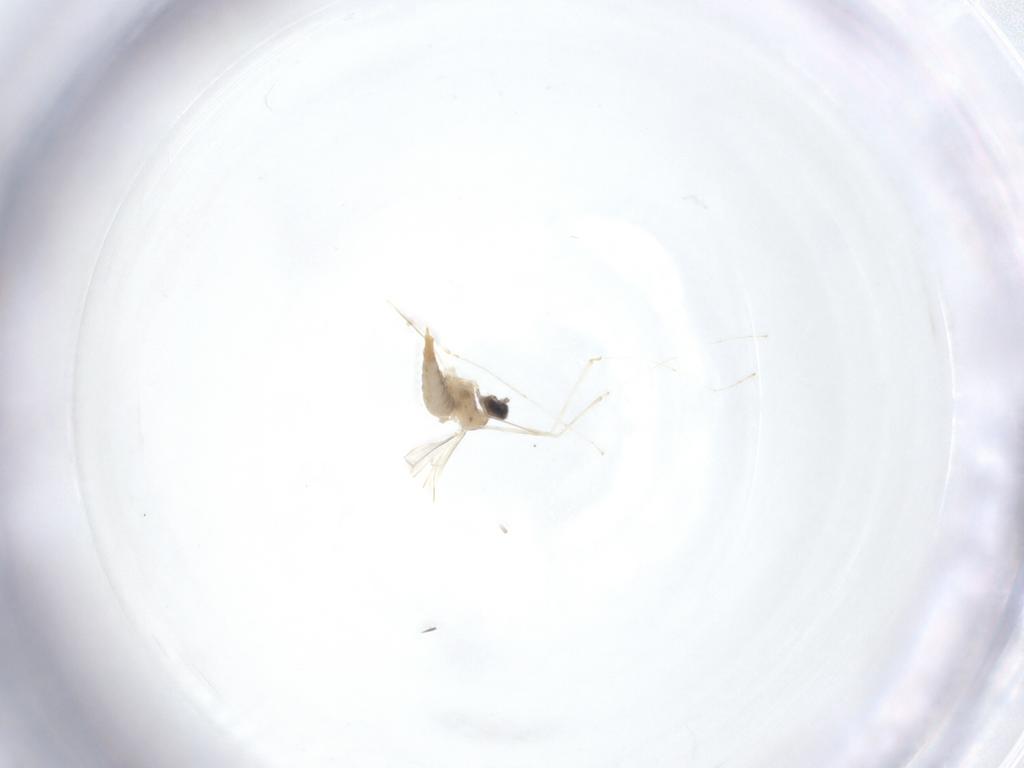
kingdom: Animalia
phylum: Arthropoda
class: Insecta
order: Diptera
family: Cecidomyiidae
